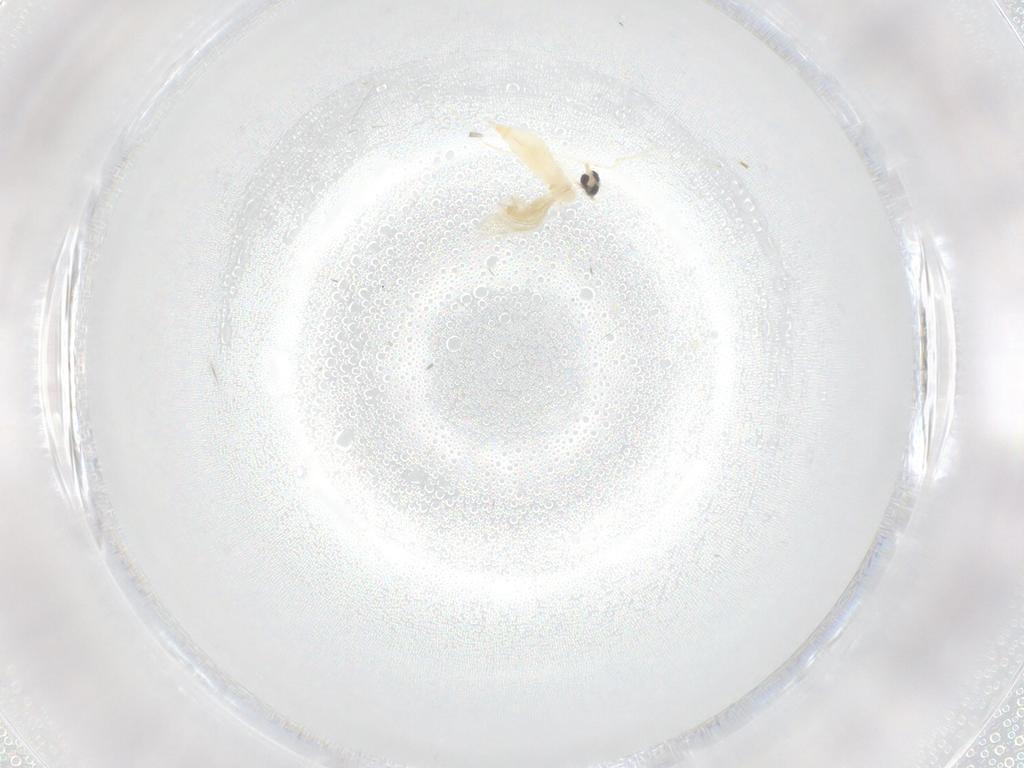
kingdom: Animalia
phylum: Arthropoda
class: Insecta
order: Diptera
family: Sphaeroceridae
